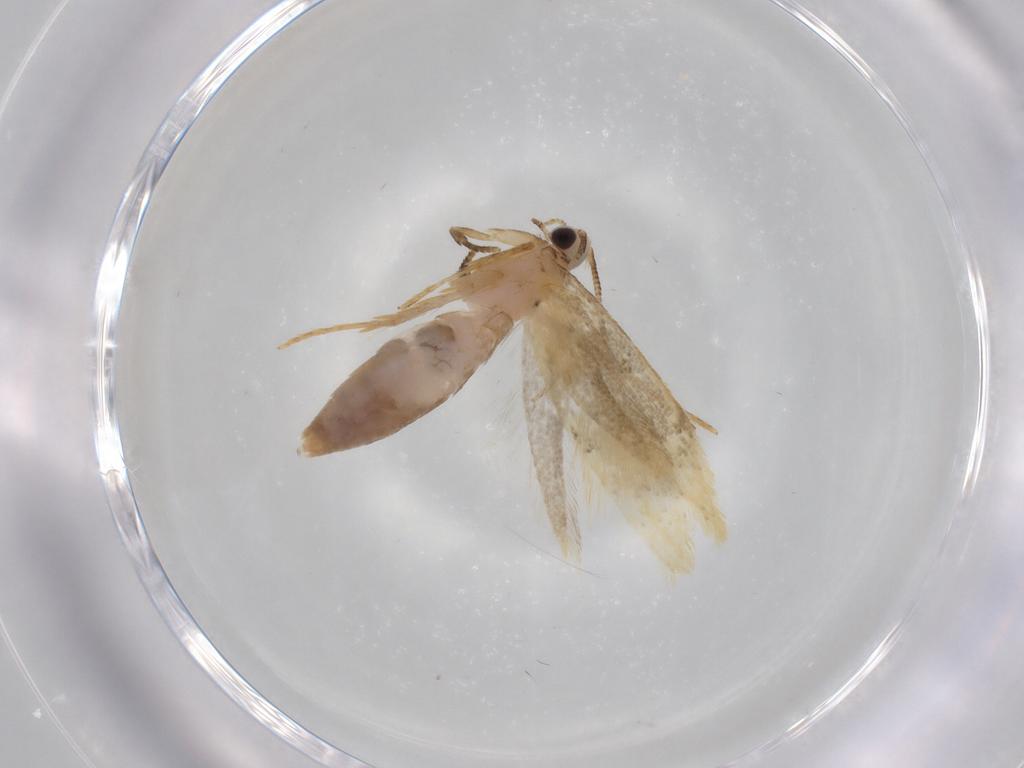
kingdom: Animalia
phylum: Arthropoda
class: Insecta
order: Lepidoptera
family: Tineidae
